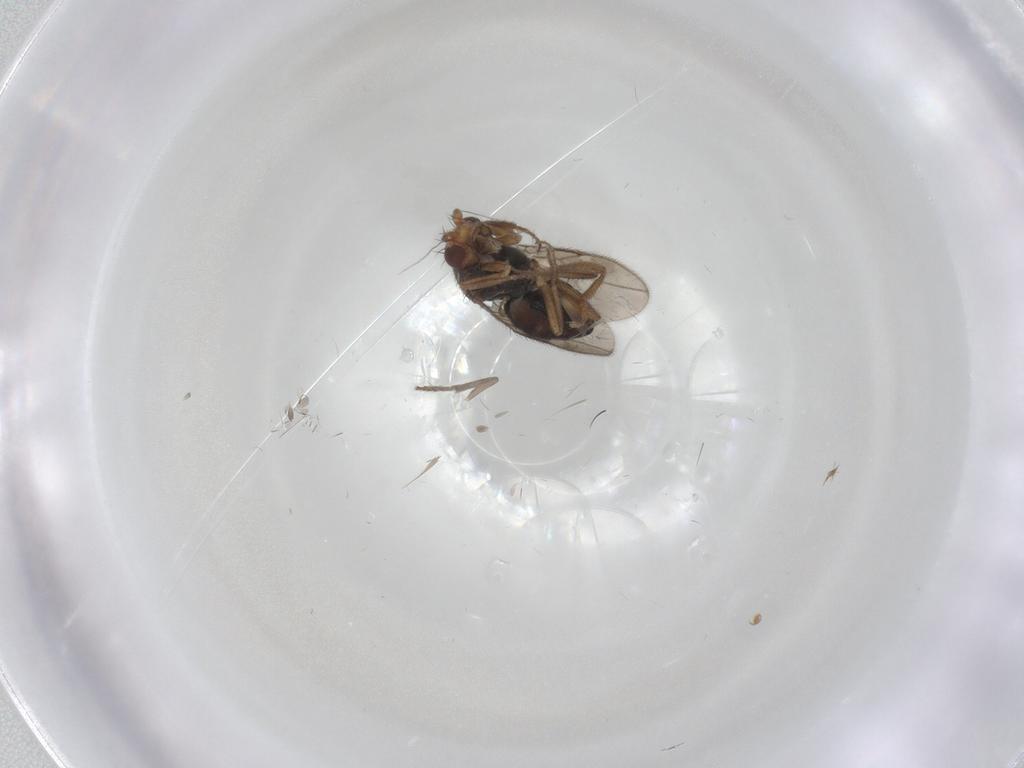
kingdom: Animalia
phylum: Arthropoda
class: Insecta
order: Diptera
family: Sphaeroceridae
